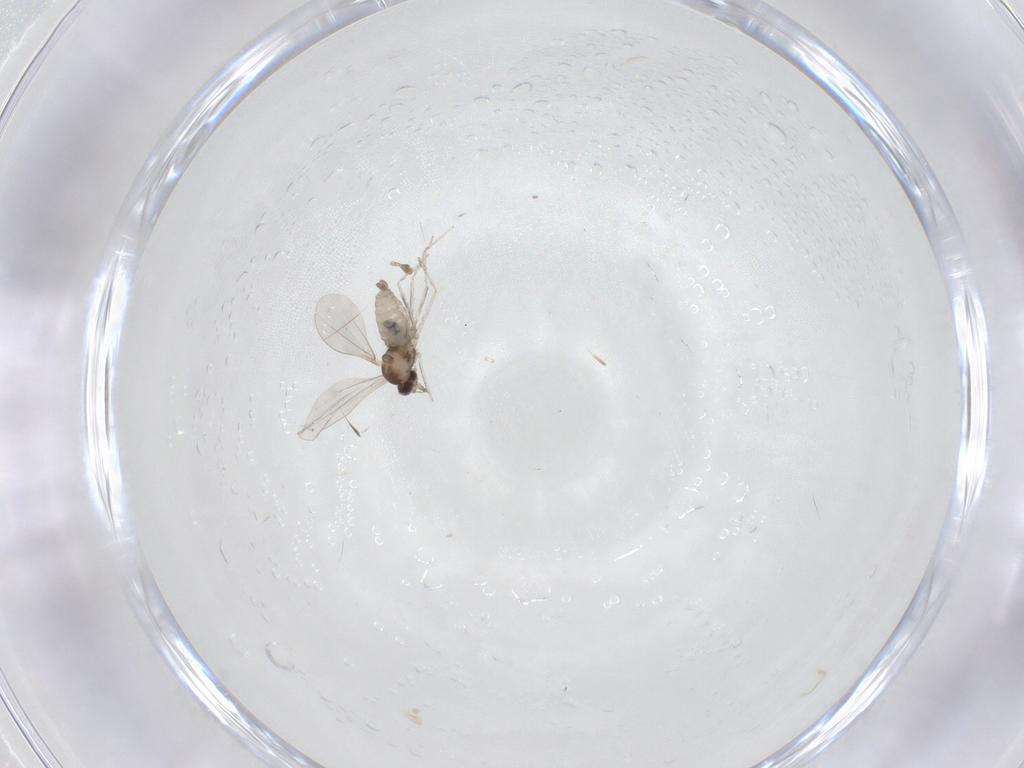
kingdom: Animalia
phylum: Arthropoda
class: Insecta
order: Diptera
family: Cecidomyiidae
